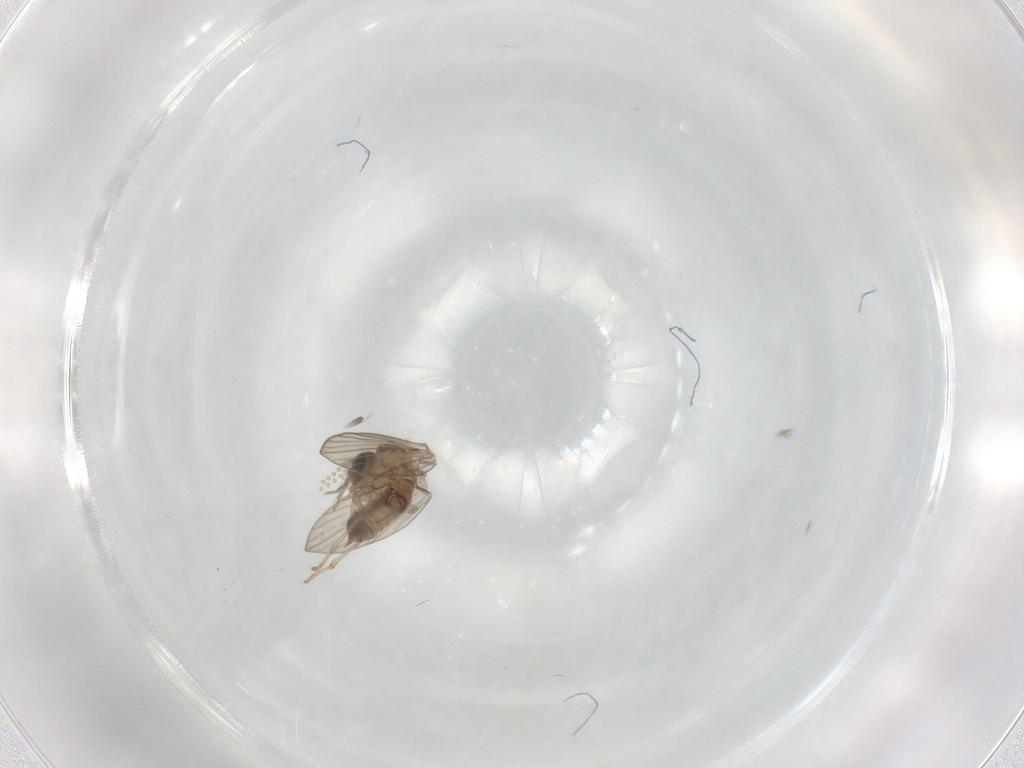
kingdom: Animalia
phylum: Arthropoda
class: Insecta
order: Diptera
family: Psychodidae
